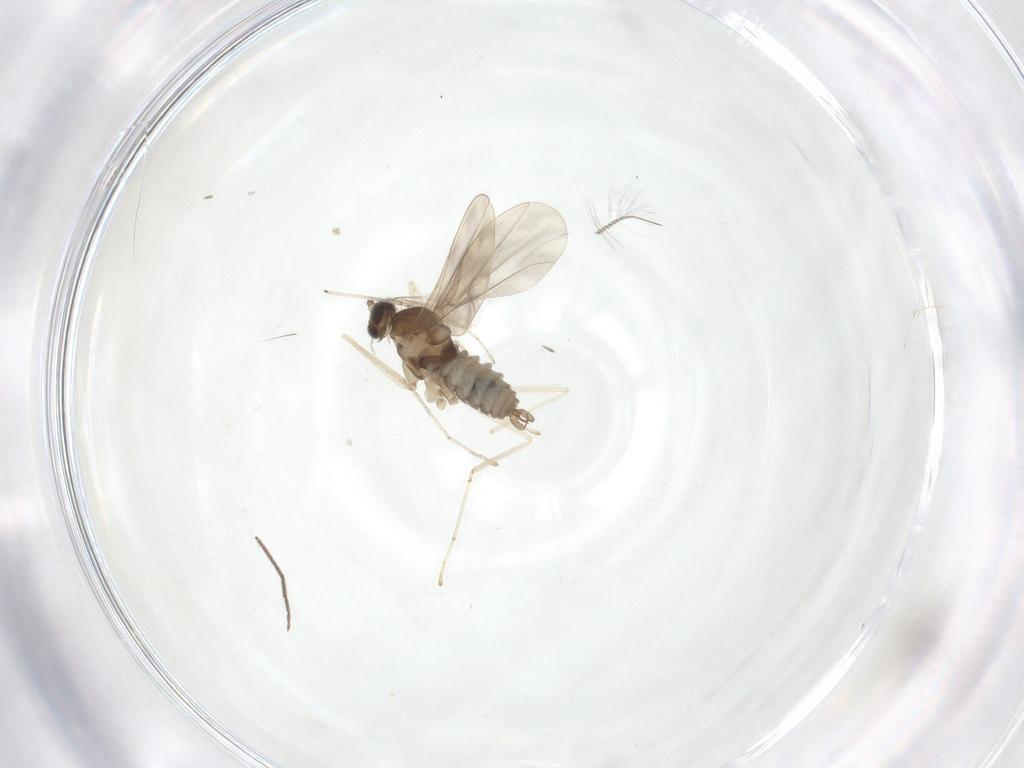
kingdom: Animalia
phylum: Arthropoda
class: Insecta
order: Diptera
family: Cecidomyiidae
